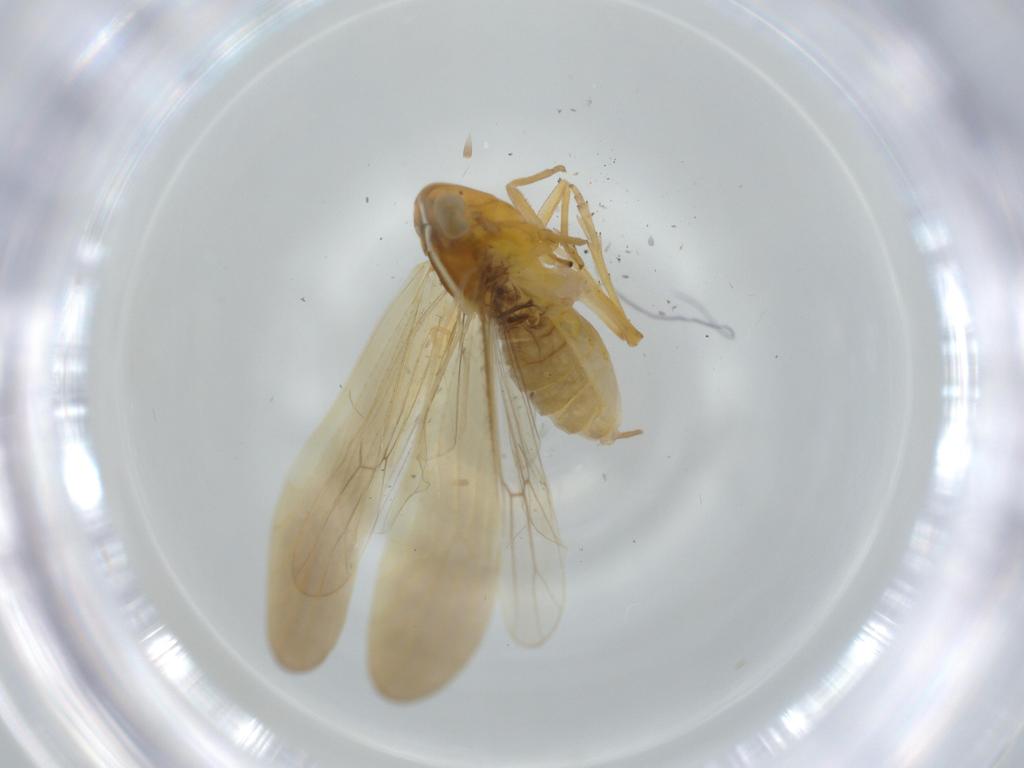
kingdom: Animalia
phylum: Arthropoda
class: Insecta
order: Hemiptera
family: Delphacidae
